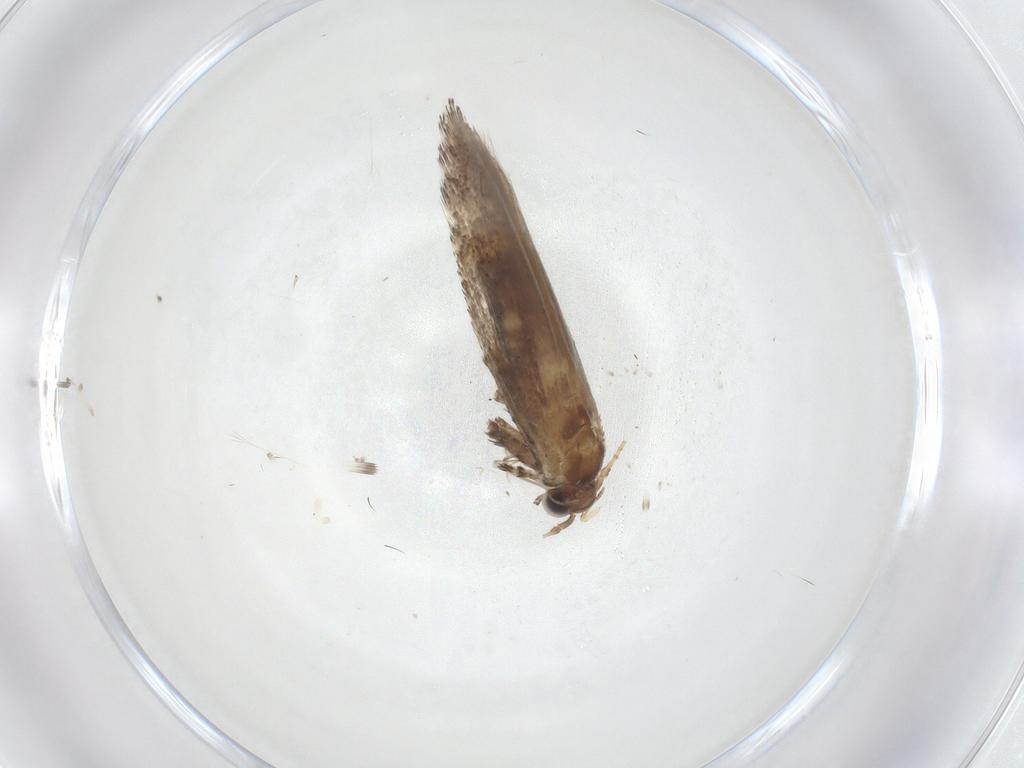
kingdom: Animalia
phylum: Arthropoda
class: Insecta
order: Lepidoptera
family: Gracillariidae
